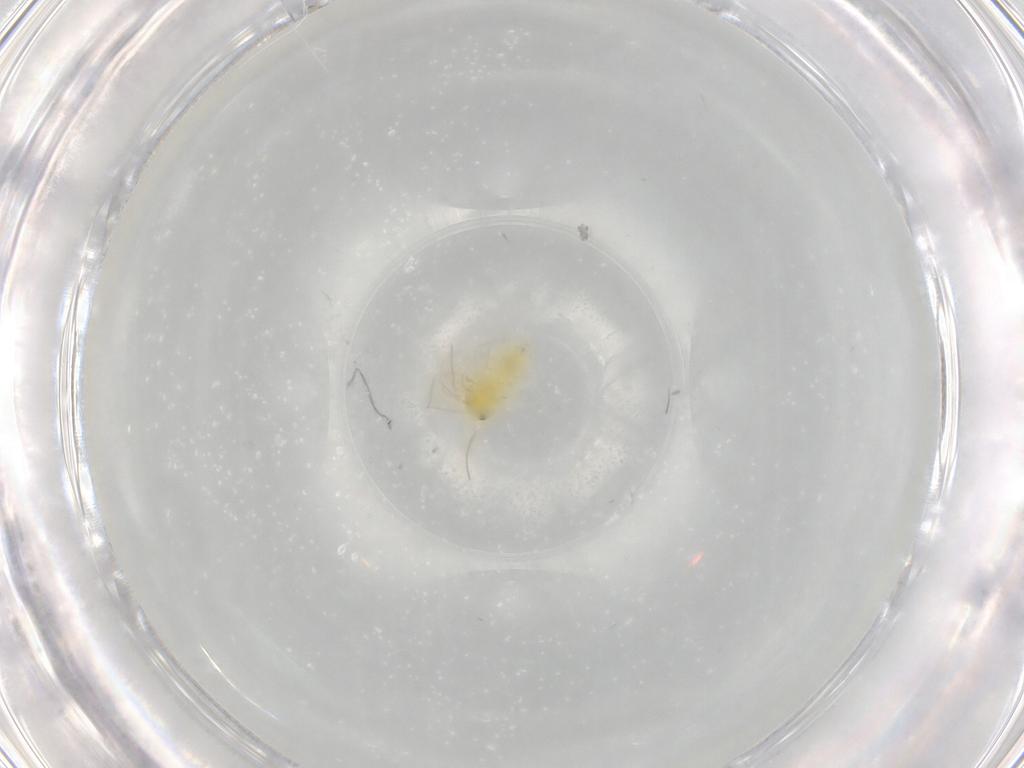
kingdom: Animalia
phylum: Arthropoda
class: Insecta
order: Hemiptera
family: Aleyrodidae
